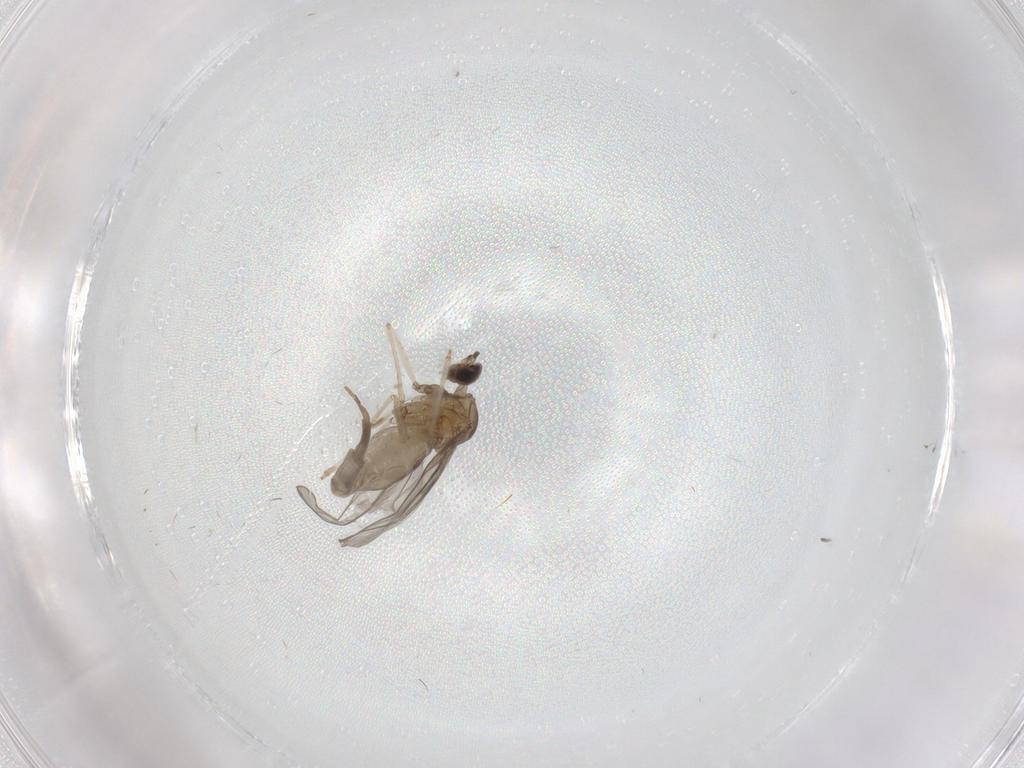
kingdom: Animalia
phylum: Arthropoda
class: Insecta
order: Diptera
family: Cecidomyiidae
